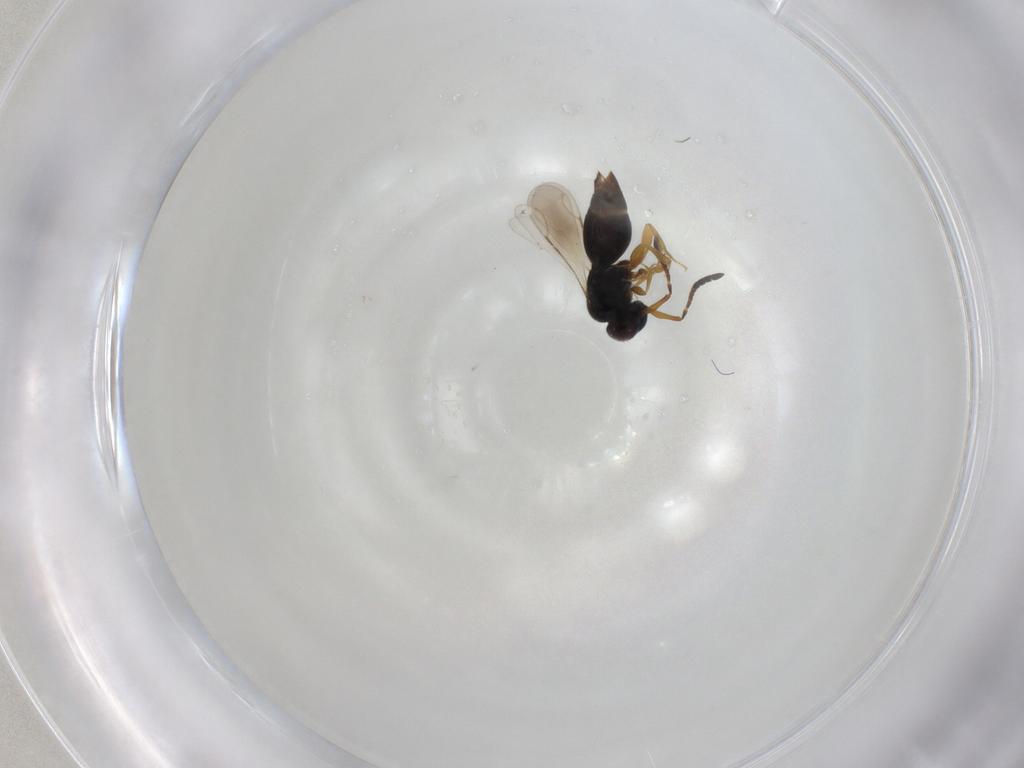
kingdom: Animalia
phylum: Arthropoda
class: Insecta
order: Hymenoptera
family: Ceraphronidae
